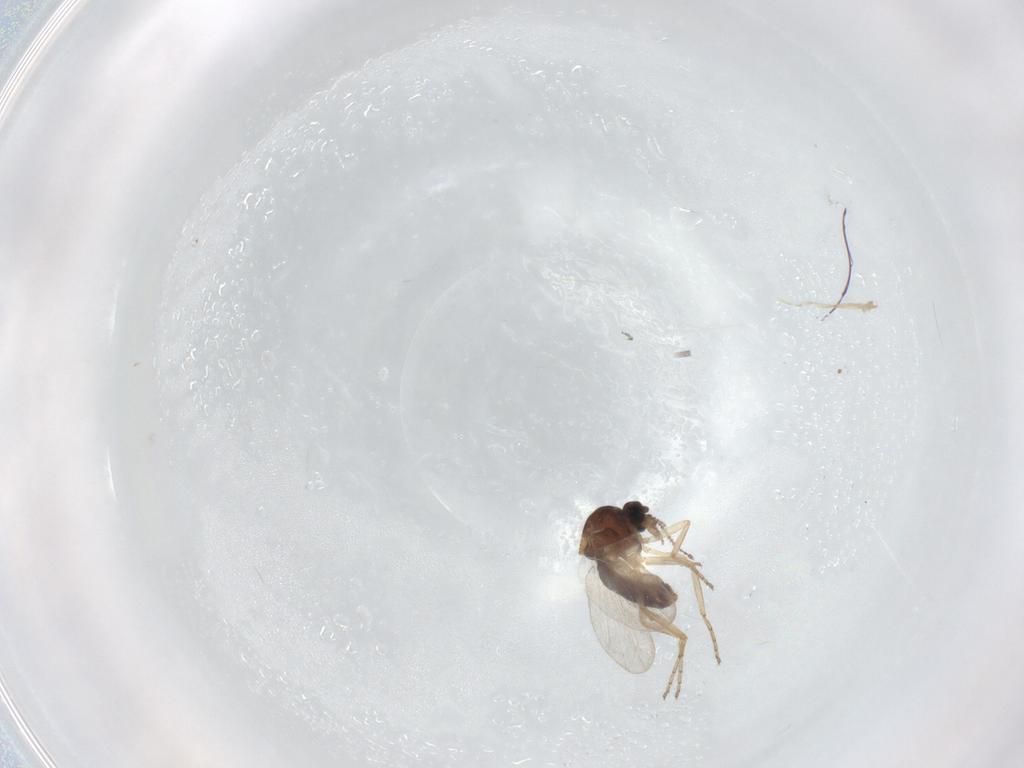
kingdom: Animalia
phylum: Arthropoda
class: Insecta
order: Diptera
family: Ceratopogonidae
